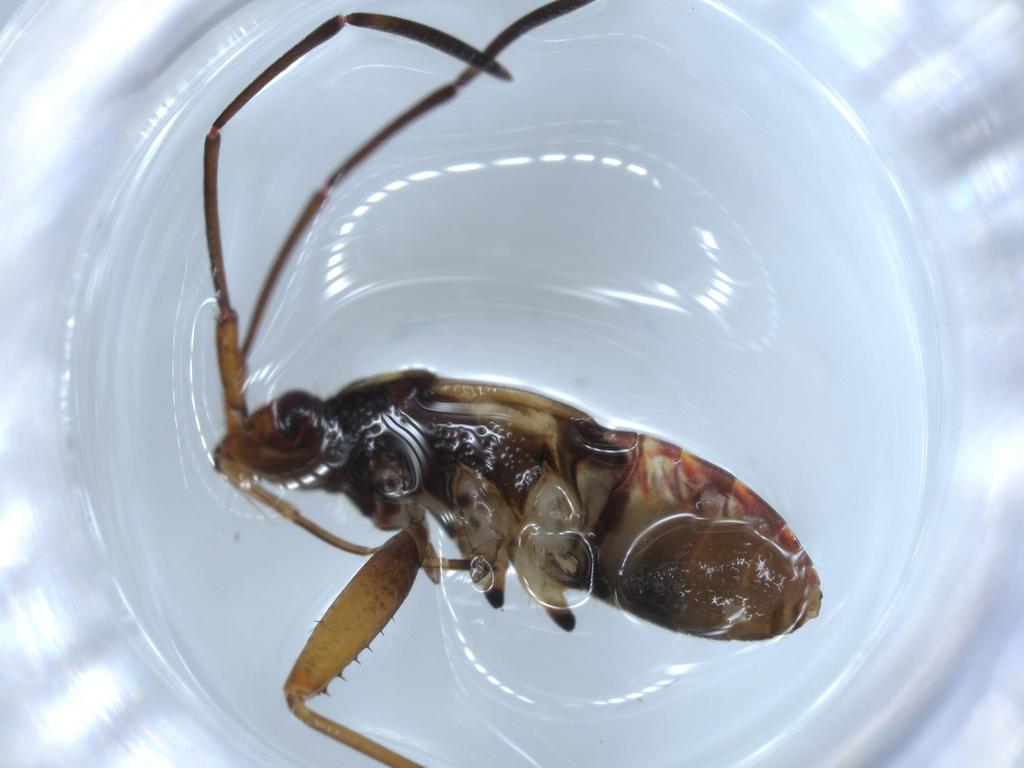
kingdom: Animalia
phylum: Arthropoda
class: Insecta
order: Hemiptera
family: Rhyparochromidae
